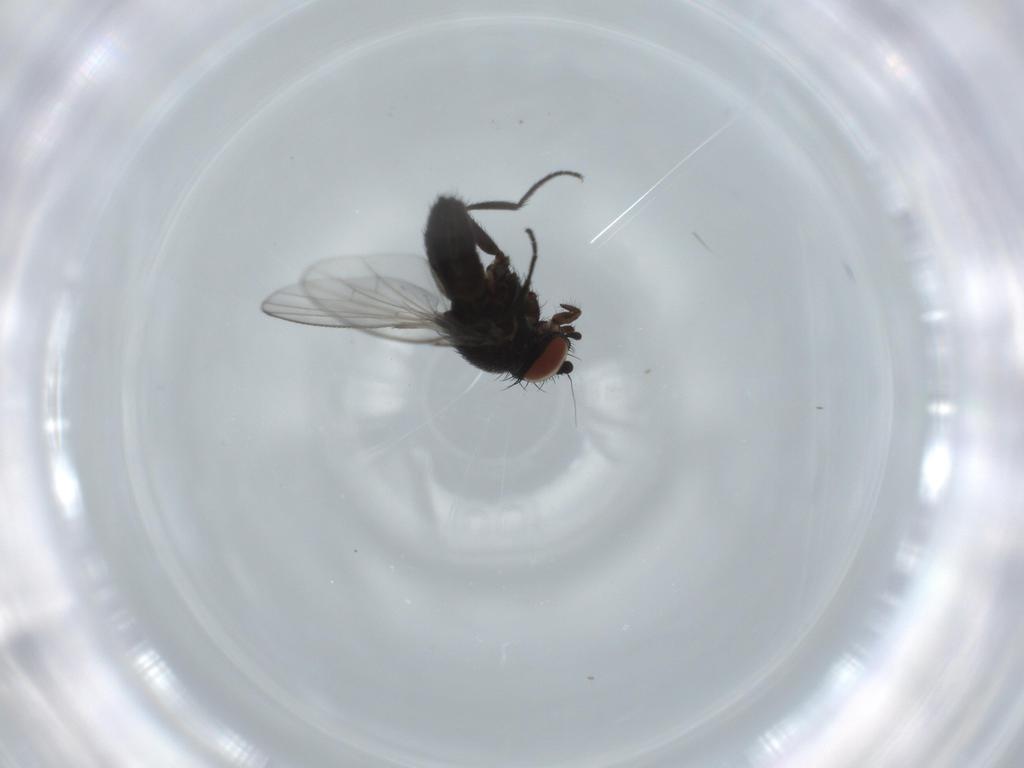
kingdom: Animalia
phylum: Arthropoda
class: Insecta
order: Diptera
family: Sphaeroceridae
